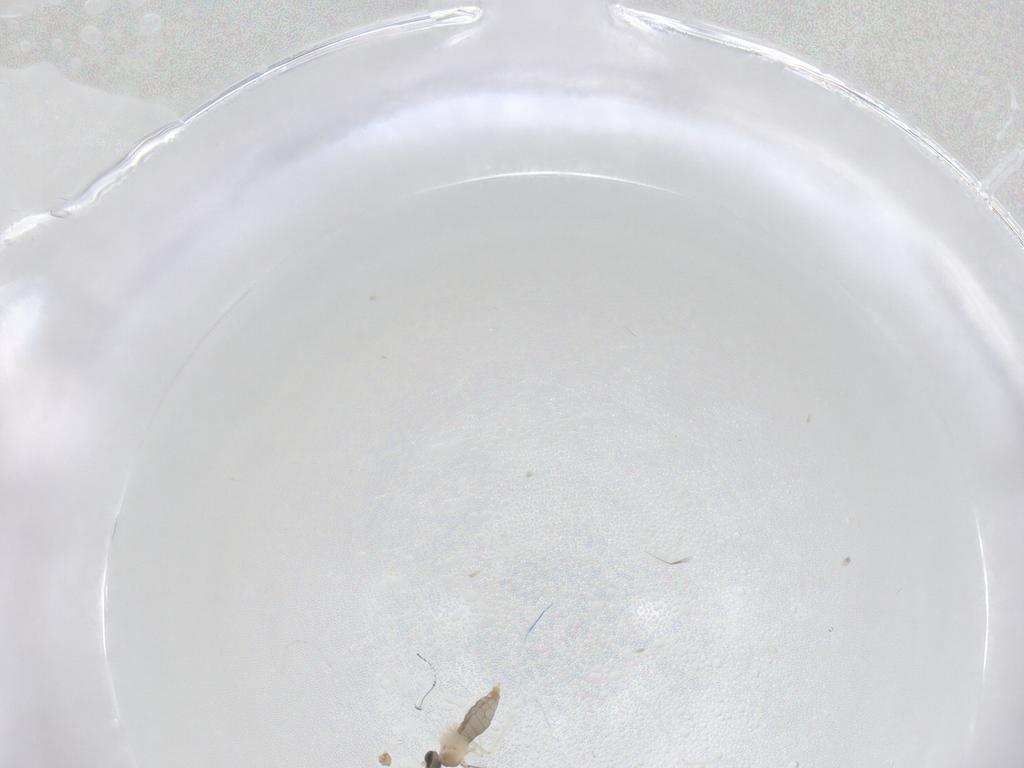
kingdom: Animalia
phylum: Arthropoda
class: Insecta
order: Diptera
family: Cecidomyiidae
